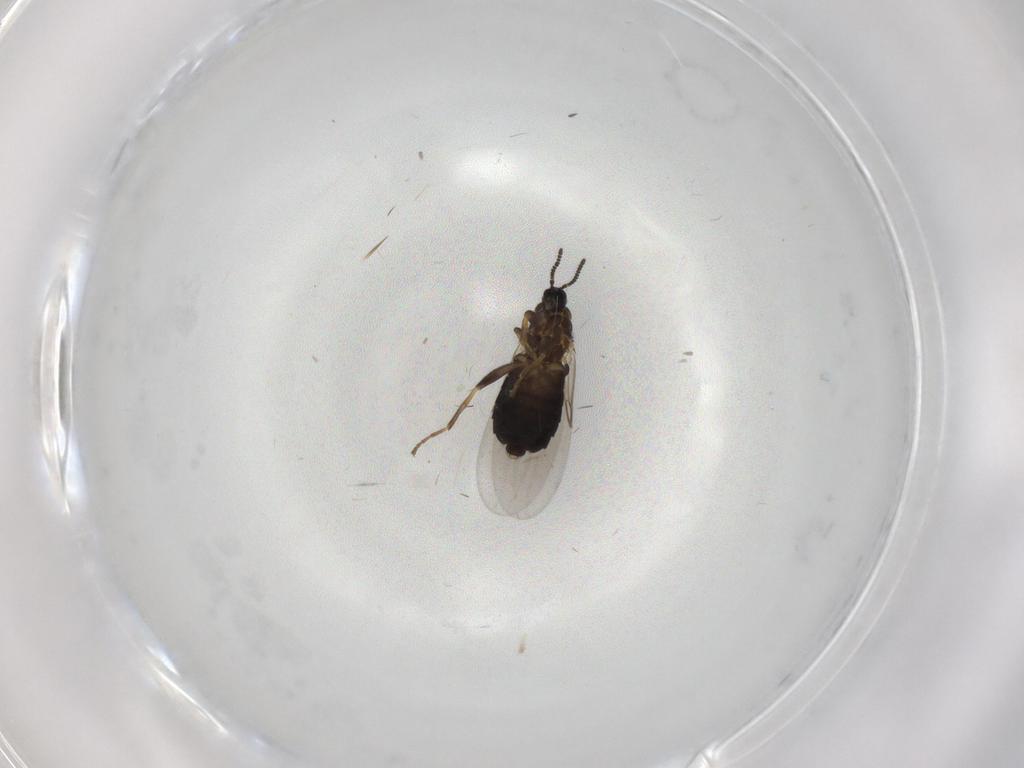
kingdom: Animalia
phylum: Arthropoda
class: Insecta
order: Diptera
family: Scatopsidae
